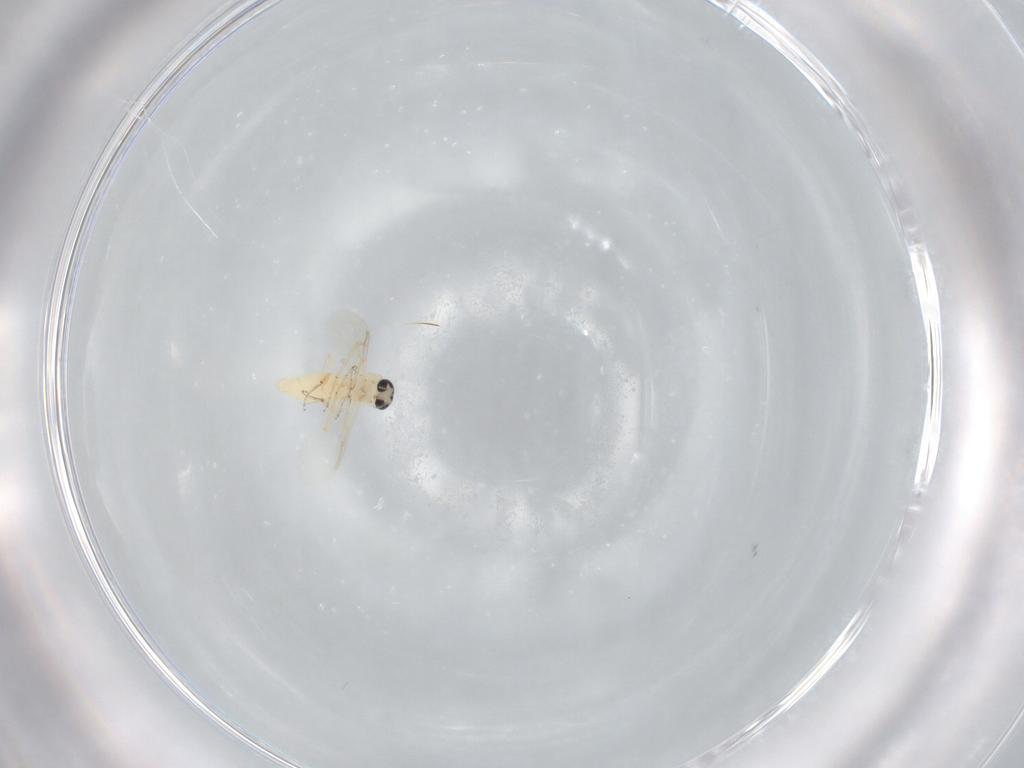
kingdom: Animalia
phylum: Arthropoda
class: Insecta
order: Diptera
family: Ceratopogonidae
